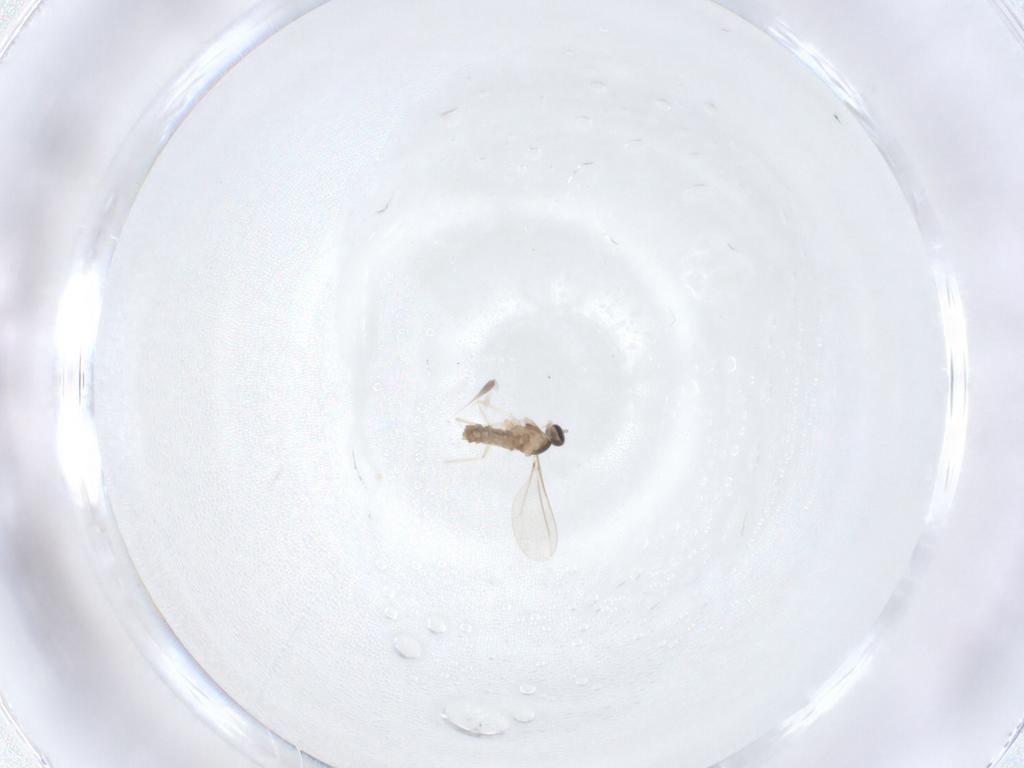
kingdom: Animalia
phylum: Arthropoda
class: Insecta
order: Diptera
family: Cecidomyiidae
